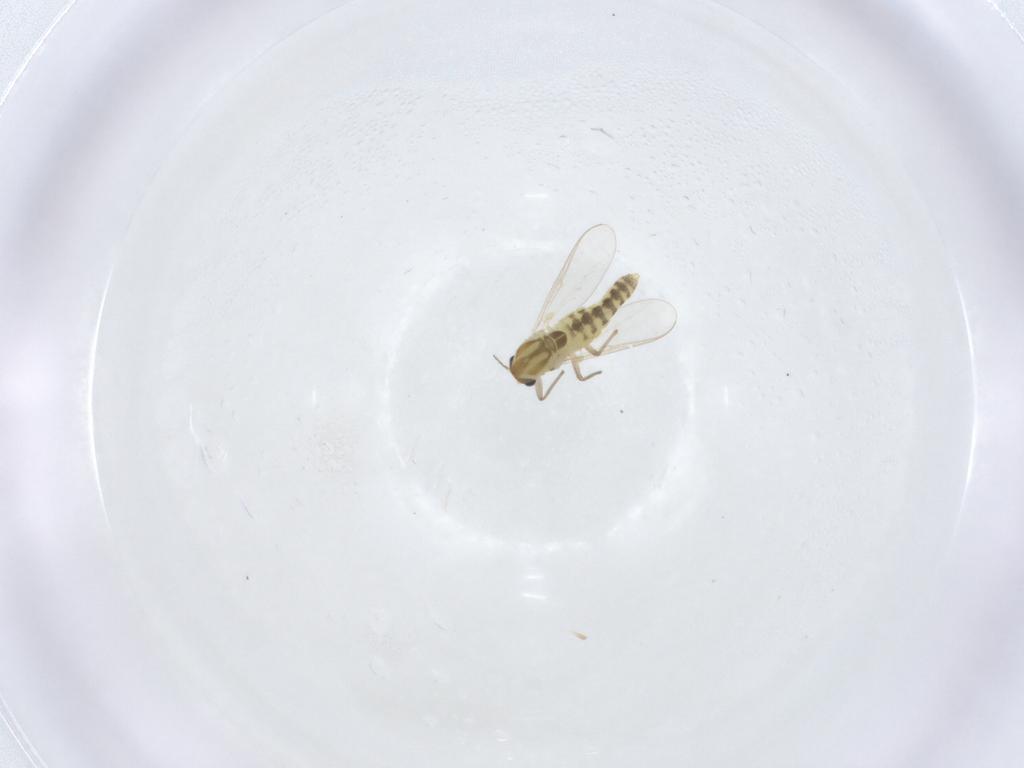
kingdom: Animalia
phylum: Arthropoda
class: Insecta
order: Diptera
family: Chironomidae
